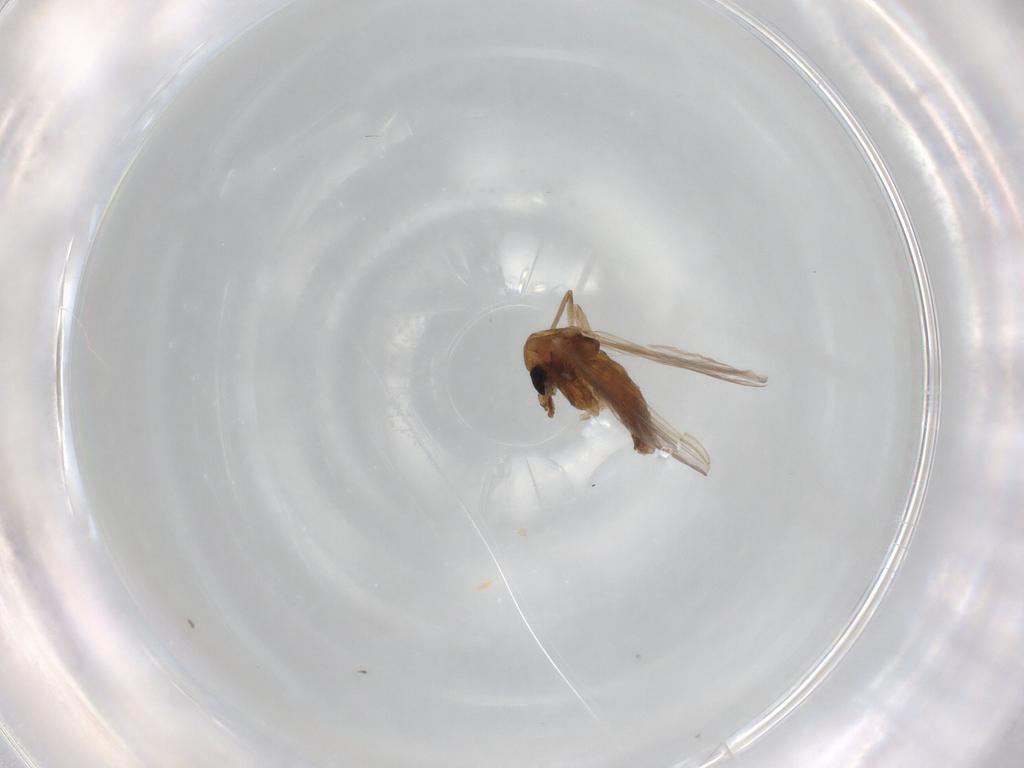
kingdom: Animalia
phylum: Arthropoda
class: Insecta
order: Diptera
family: Chironomidae
